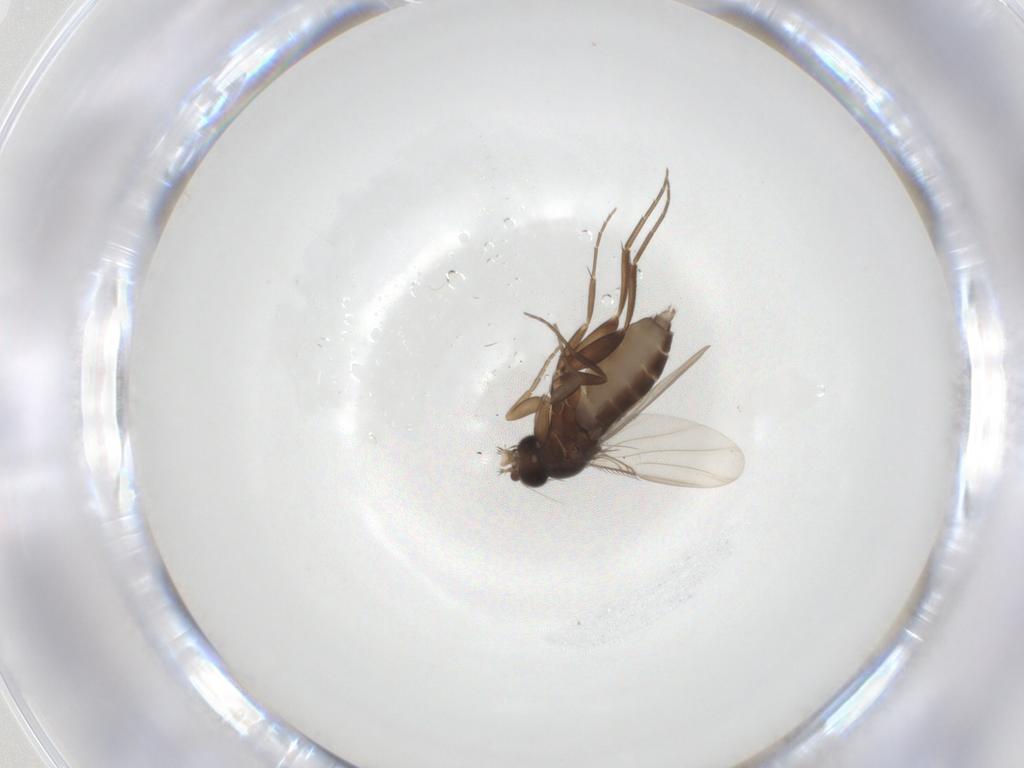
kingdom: Animalia
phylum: Arthropoda
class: Insecta
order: Diptera
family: Phoridae
